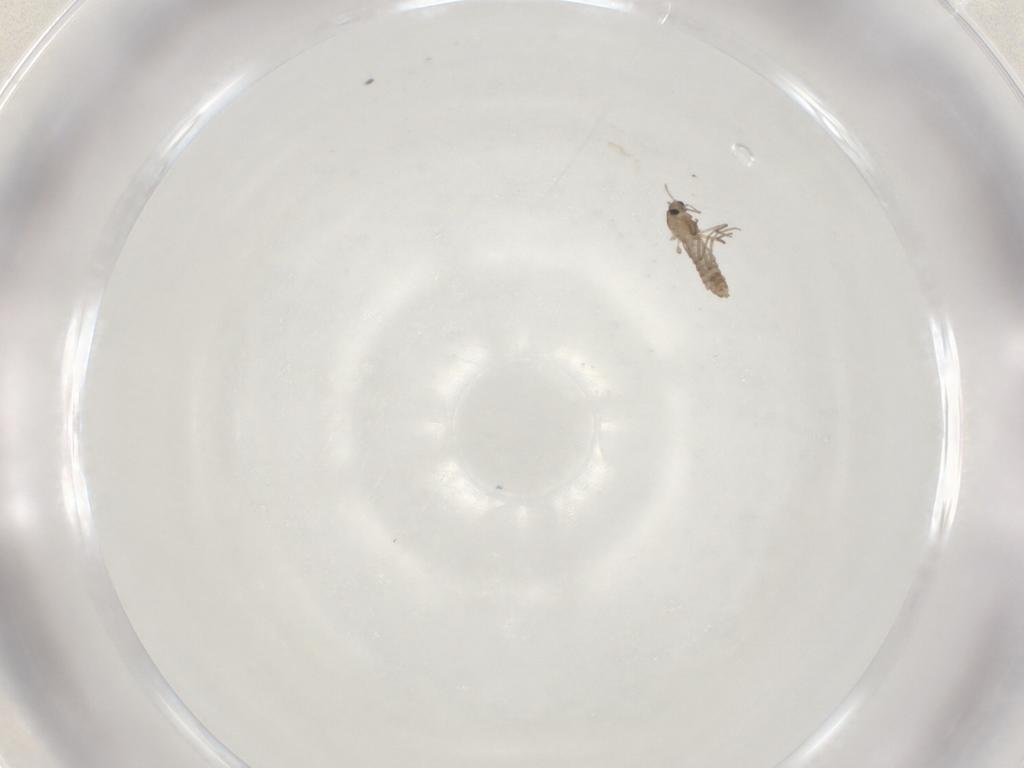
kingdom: Animalia
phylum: Arthropoda
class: Insecta
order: Diptera
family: Chironomidae
